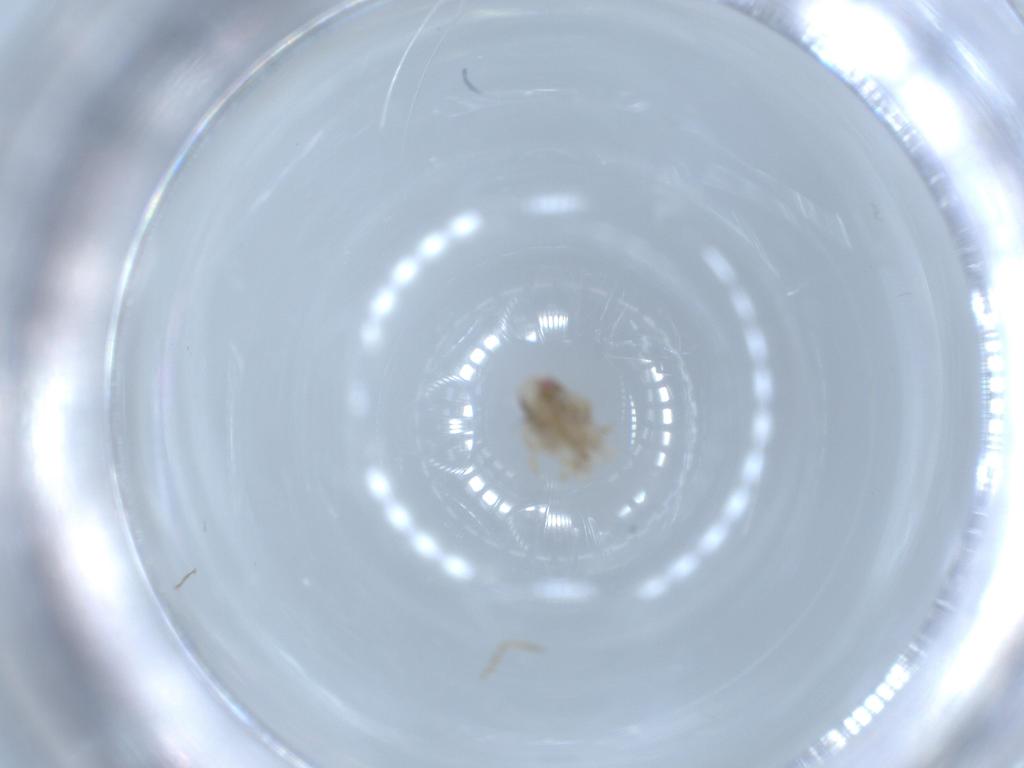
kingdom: Animalia
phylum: Arthropoda
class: Insecta
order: Hemiptera
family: Acanaloniidae
